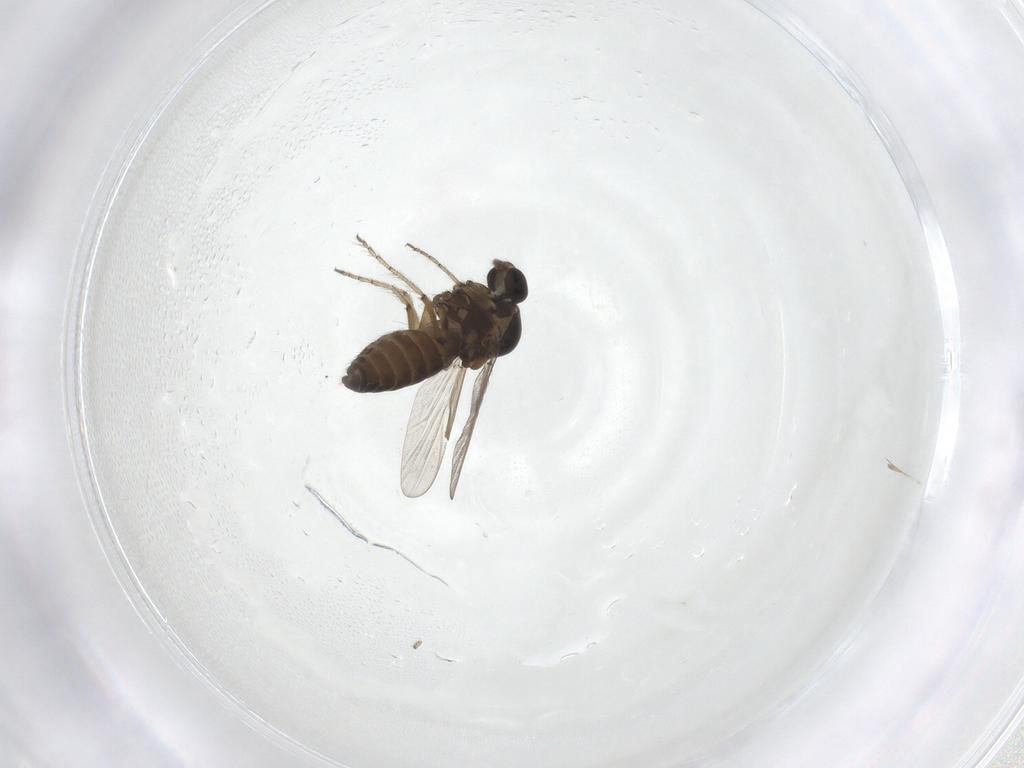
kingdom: Animalia
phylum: Arthropoda
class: Insecta
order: Diptera
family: Ceratopogonidae
